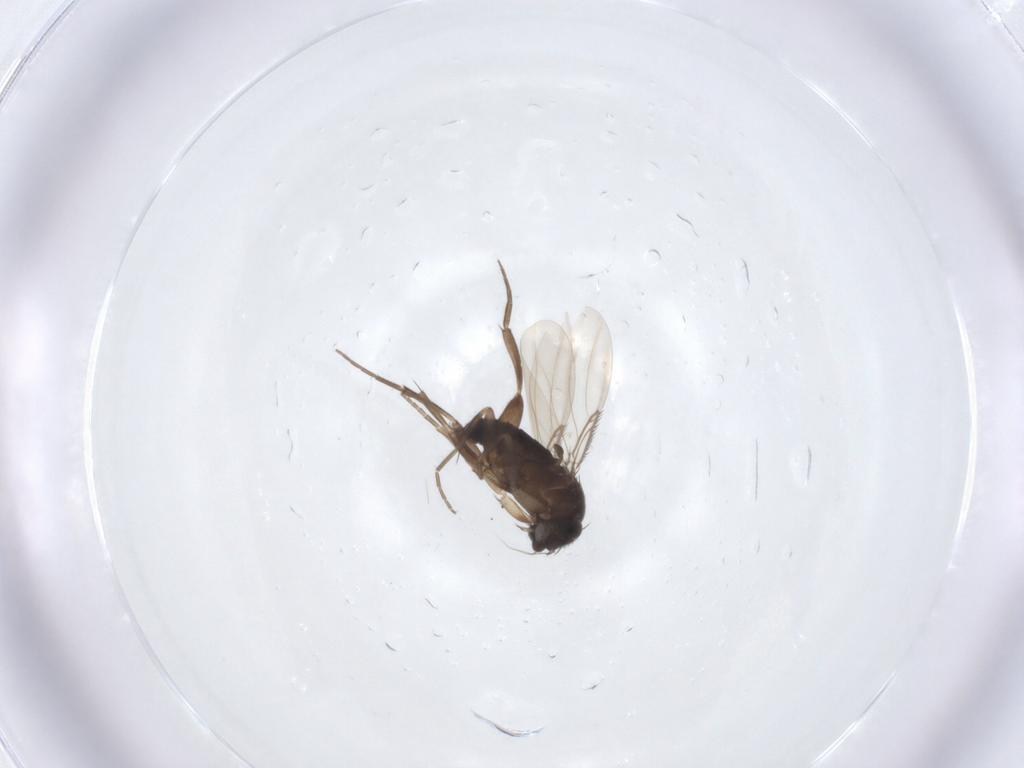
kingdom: Animalia
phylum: Arthropoda
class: Insecta
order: Diptera
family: Phoridae
